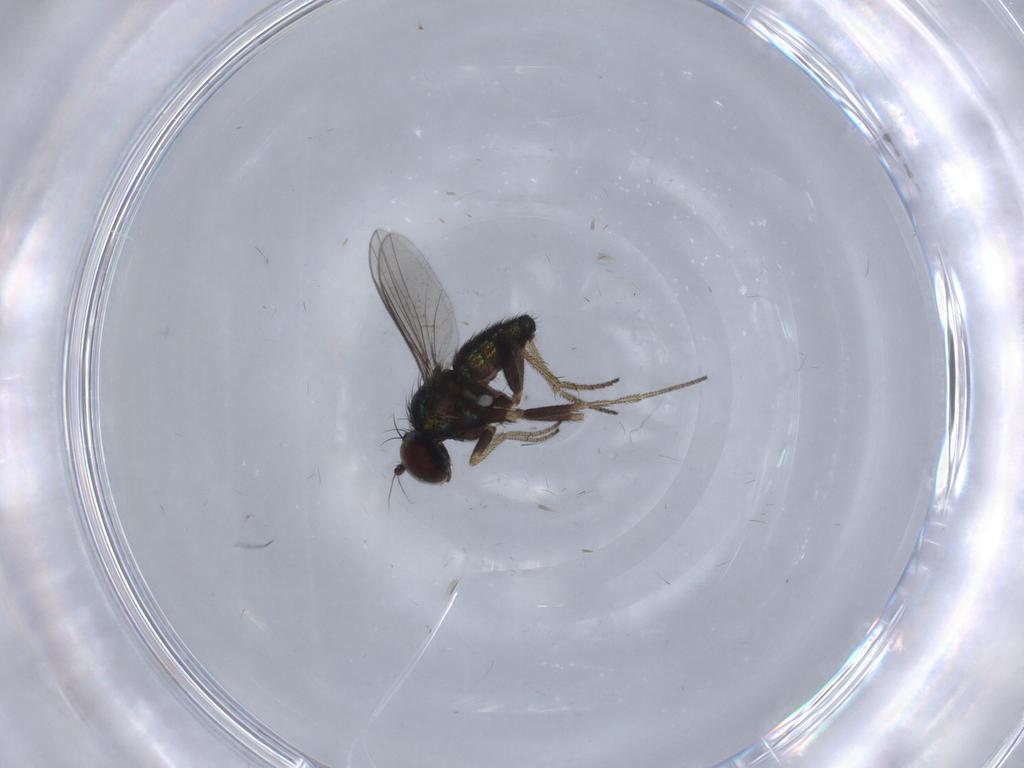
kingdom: Animalia
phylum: Arthropoda
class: Insecta
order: Diptera
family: Chironomidae
